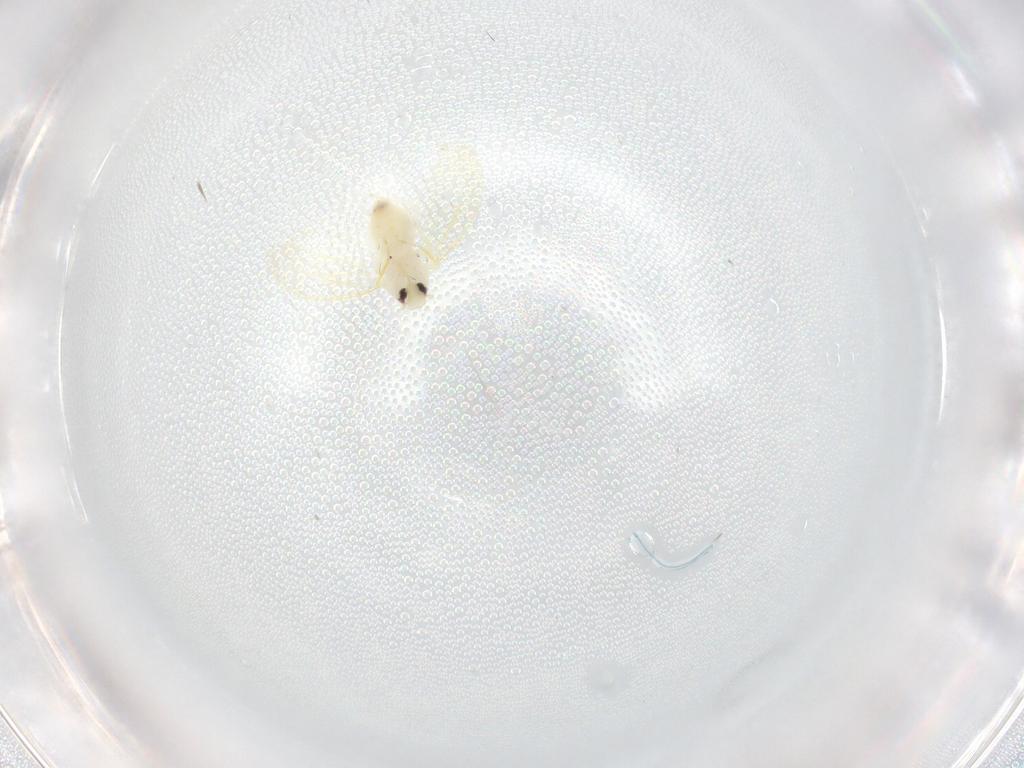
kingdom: Animalia
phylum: Arthropoda
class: Insecta
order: Hemiptera
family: Aleyrodidae
